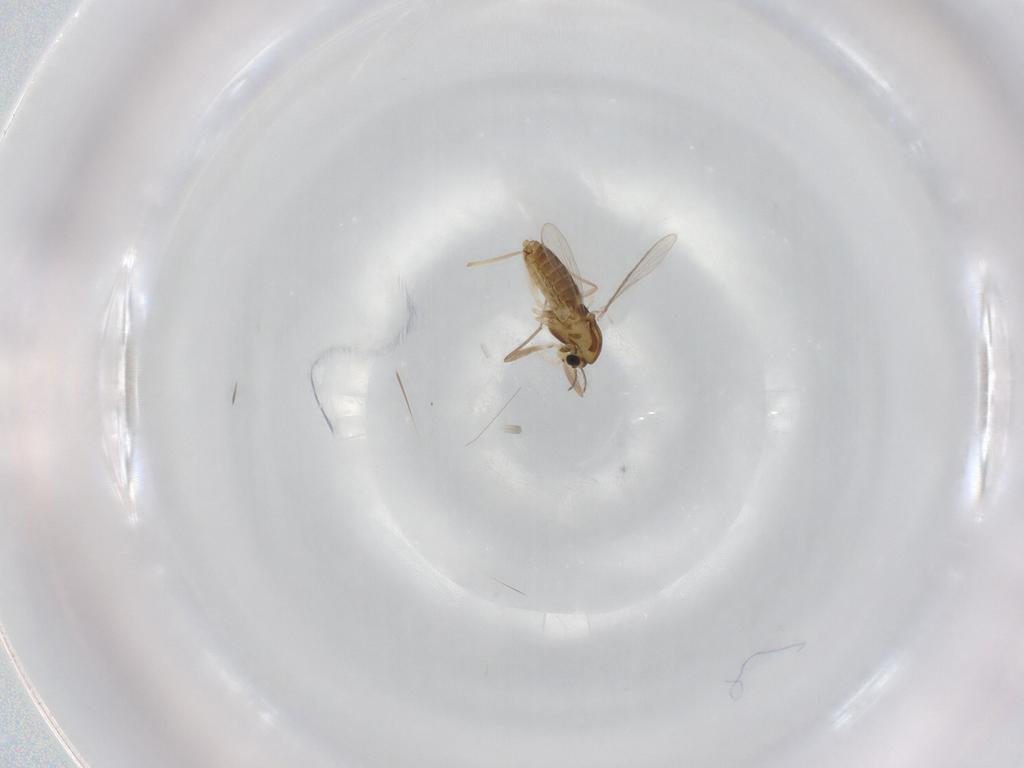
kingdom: Animalia
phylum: Arthropoda
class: Insecta
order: Diptera
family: Chironomidae
